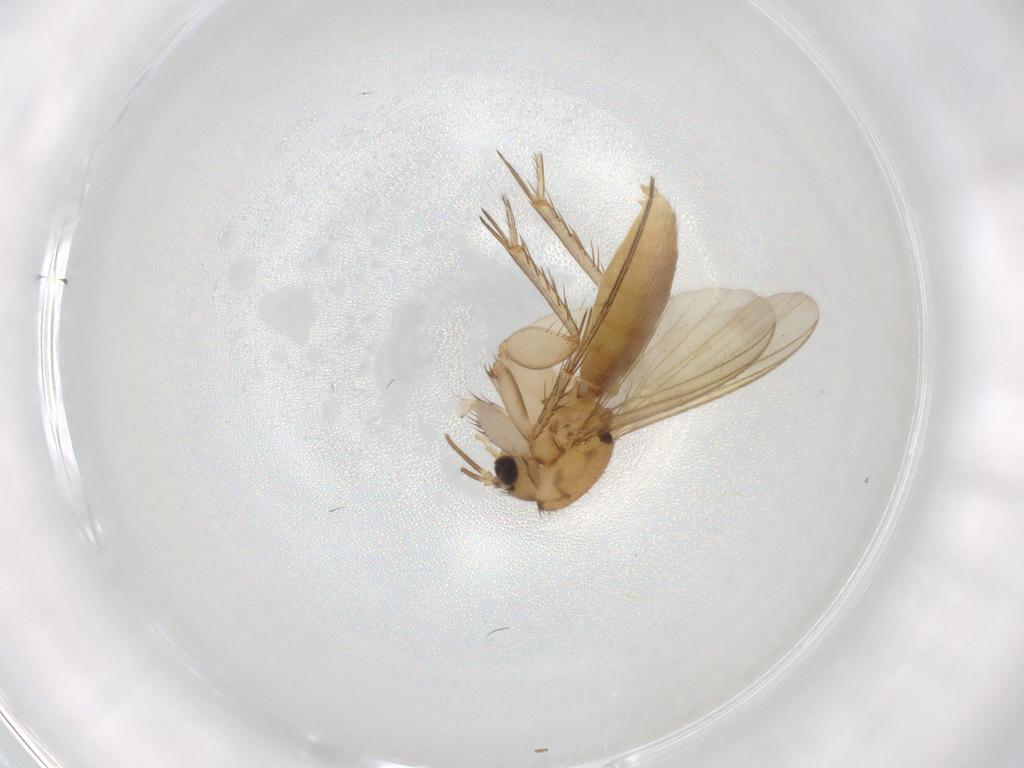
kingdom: Animalia
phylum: Arthropoda
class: Insecta
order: Diptera
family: Mycetophilidae
